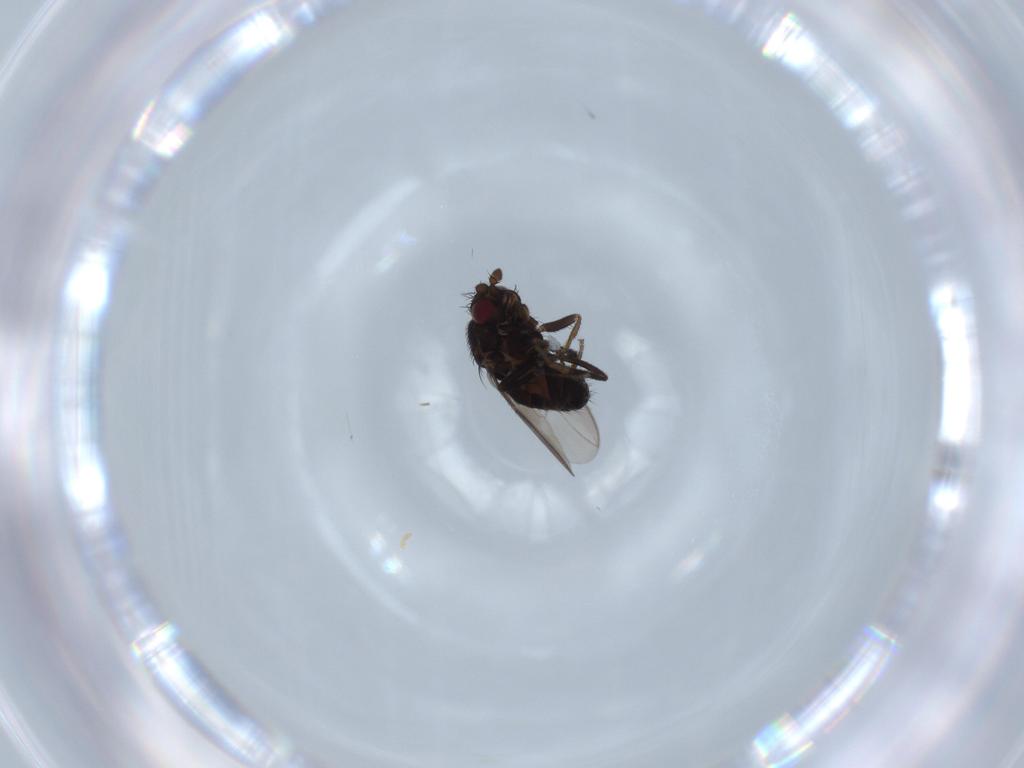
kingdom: Animalia
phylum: Arthropoda
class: Insecta
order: Diptera
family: Sphaeroceridae
